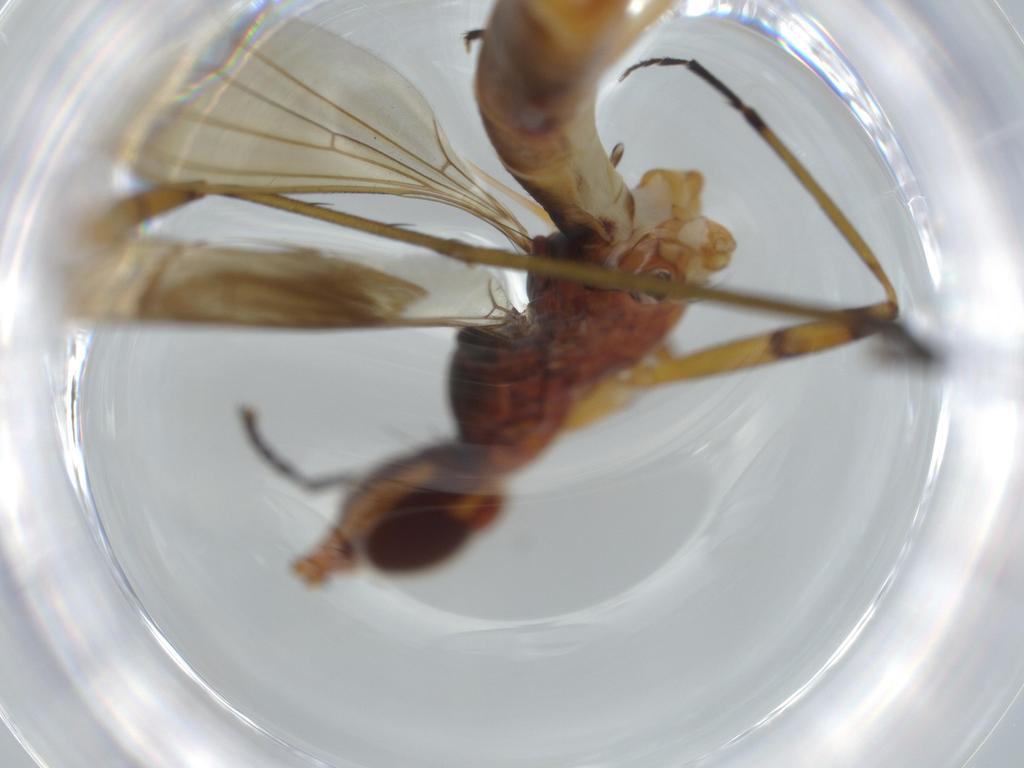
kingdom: Animalia
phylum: Arthropoda
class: Insecta
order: Diptera
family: Micropezidae
